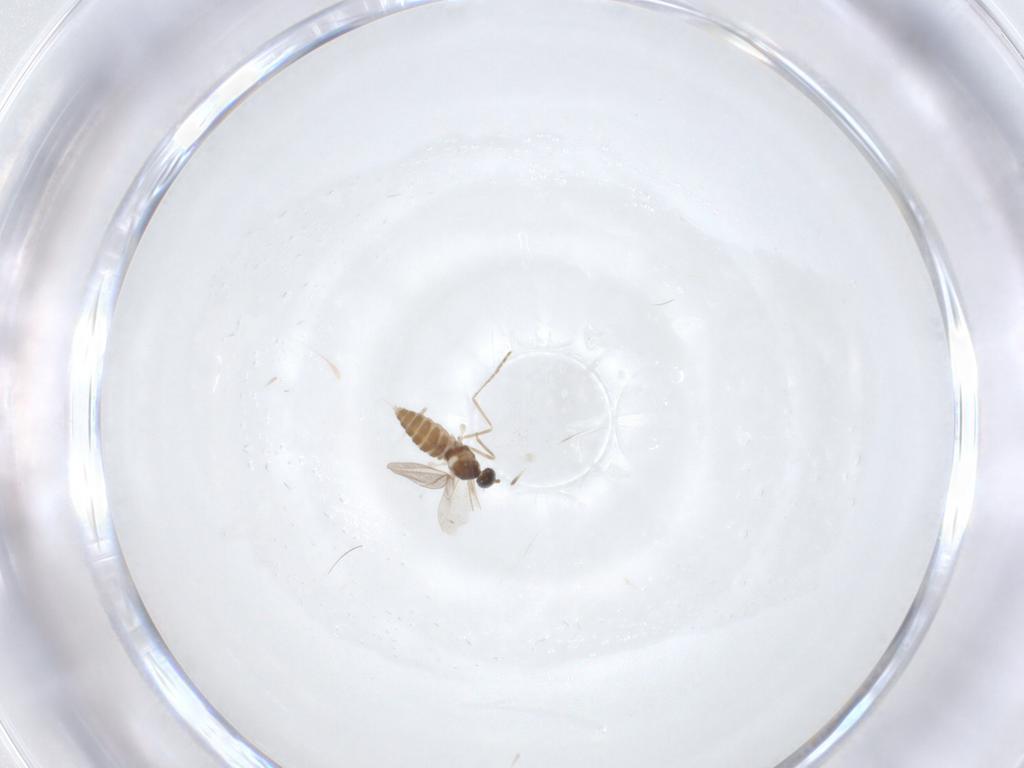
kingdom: Animalia
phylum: Arthropoda
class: Insecta
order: Diptera
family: Cecidomyiidae
